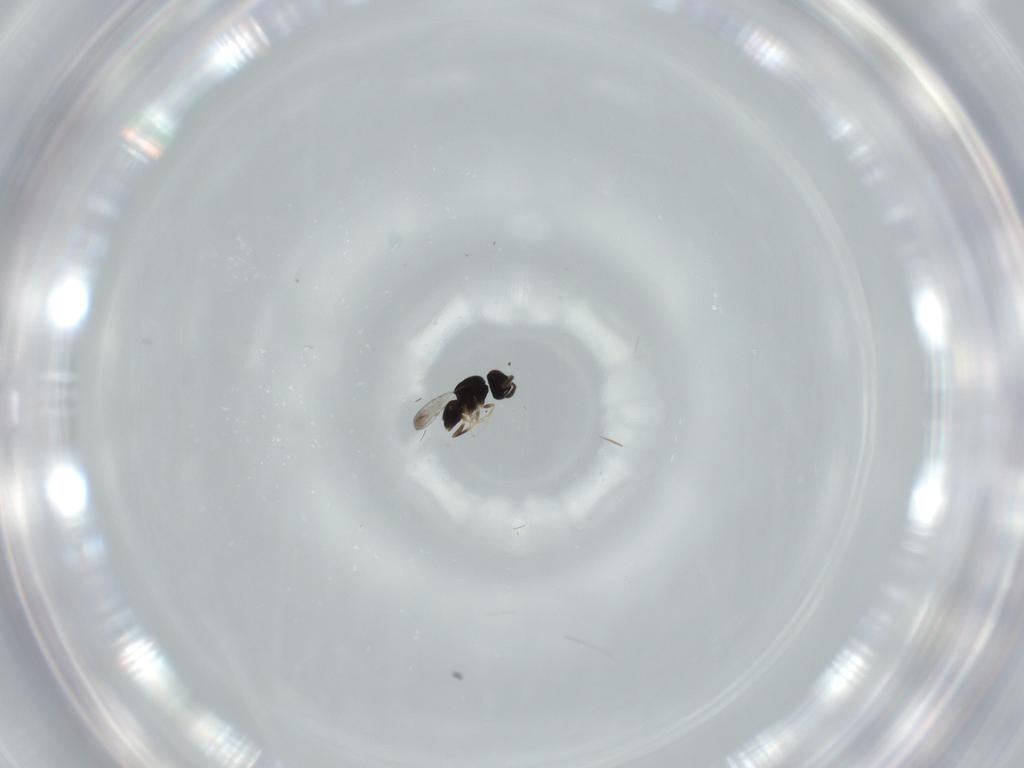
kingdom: Animalia
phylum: Arthropoda
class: Insecta
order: Hymenoptera
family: Ceraphronidae
